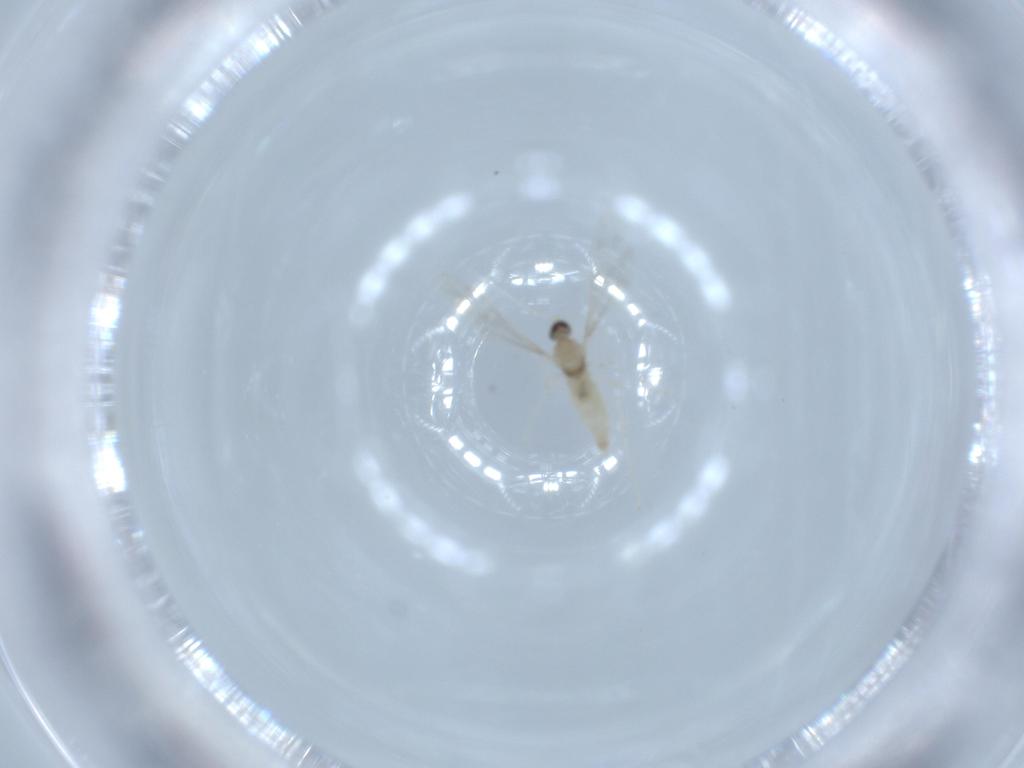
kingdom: Animalia
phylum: Arthropoda
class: Insecta
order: Diptera
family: Cecidomyiidae
